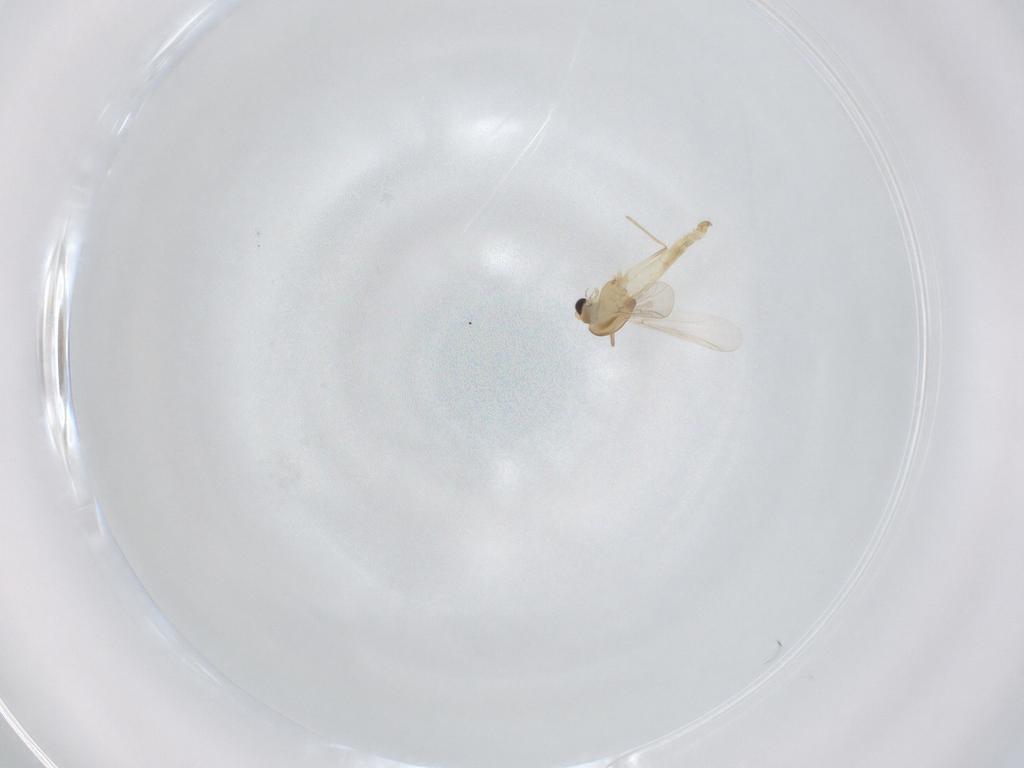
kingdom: Animalia
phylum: Arthropoda
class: Insecta
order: Diptera
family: Chironomidae
